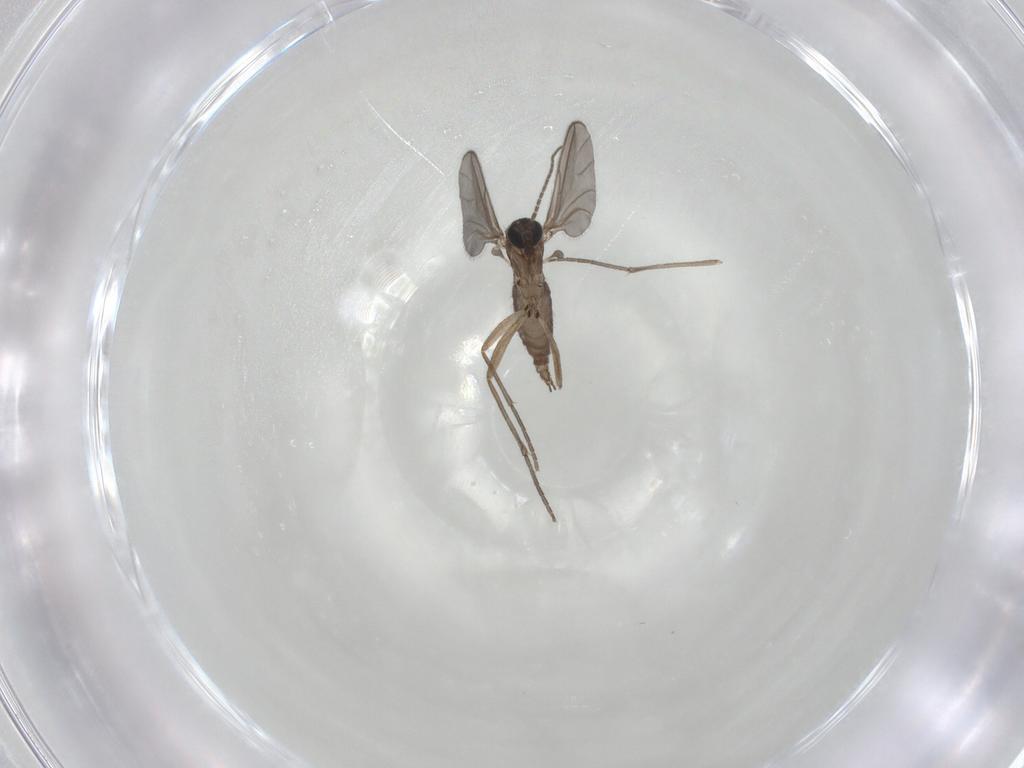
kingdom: Animalia
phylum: Arthropoda
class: Insecta
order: Diptera
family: Sciaridae
